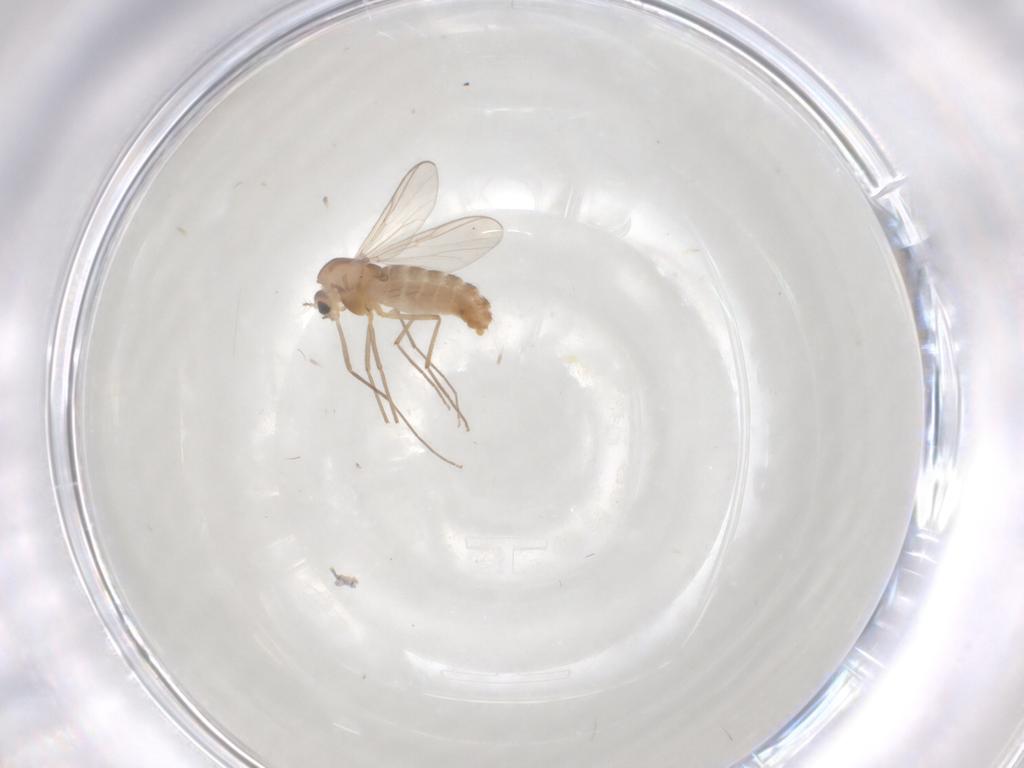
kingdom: Animalia
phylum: Arthropoda
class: Insecta
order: Diptera
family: Chironomidae
